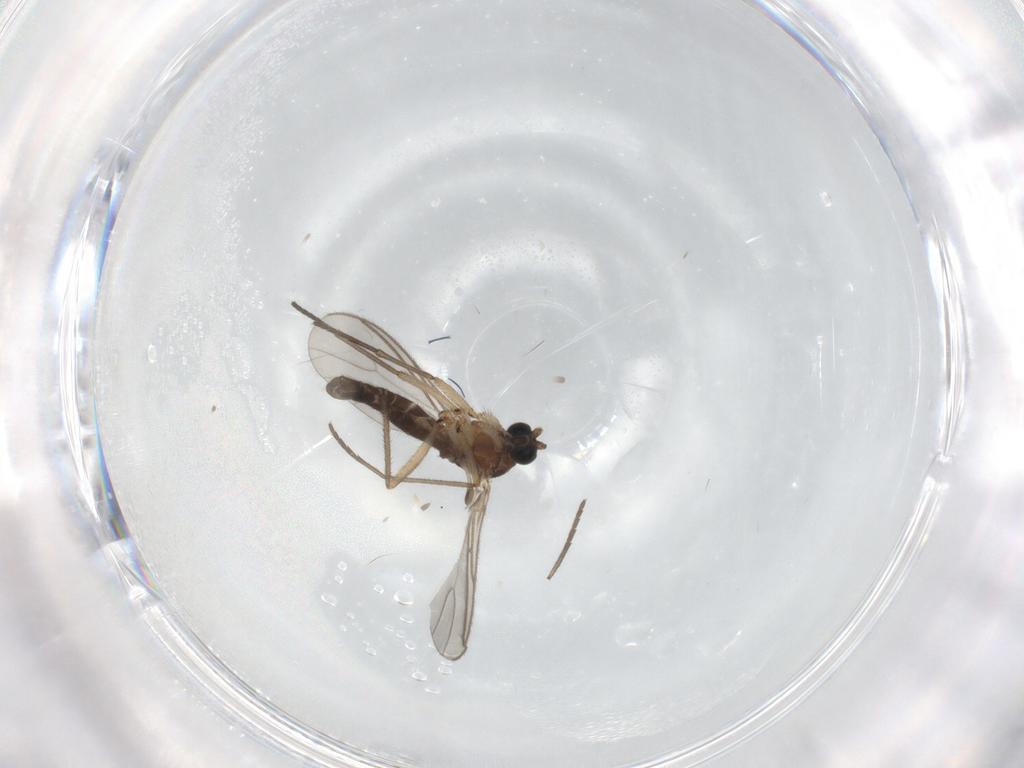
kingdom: Animalia
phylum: Arthropoda
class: Insecta
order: Diptera
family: Sciaridae
